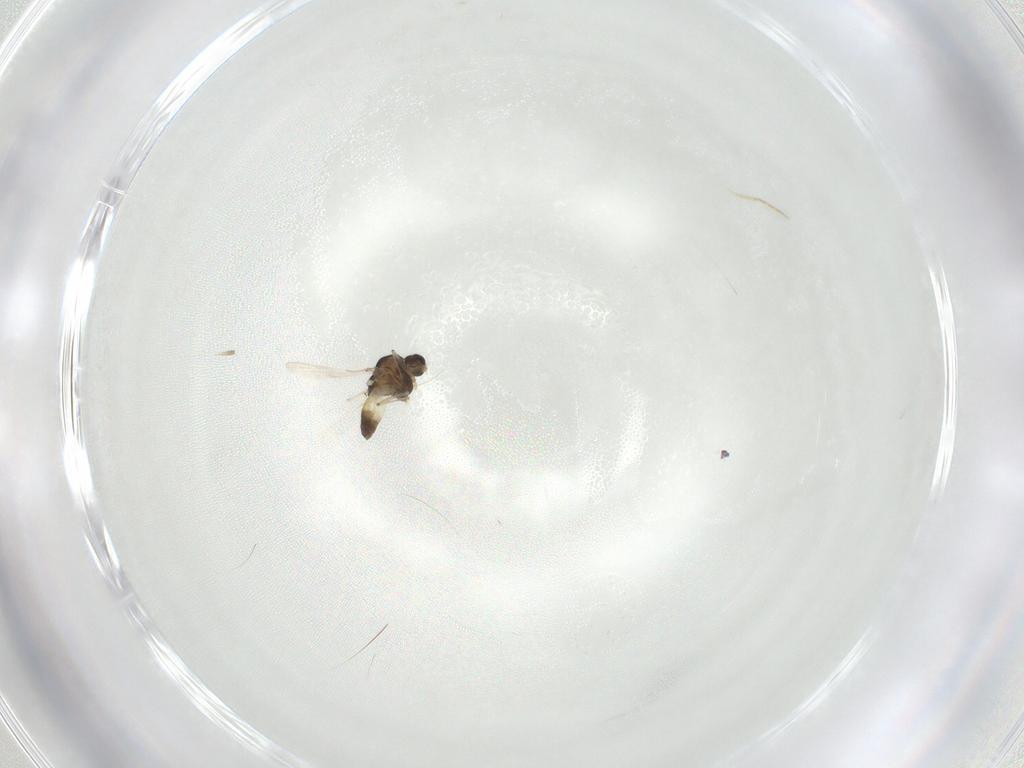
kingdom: Animalia
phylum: Arthropoda
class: Insecta
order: Diptera
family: Chironomidae
